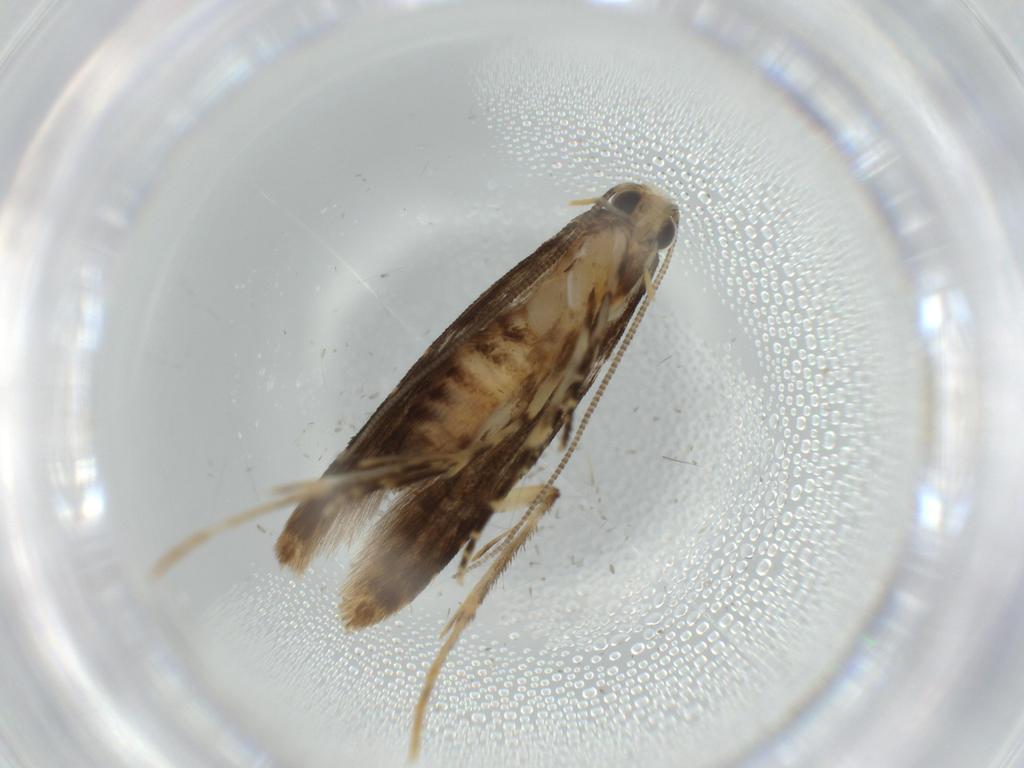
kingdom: Animalia
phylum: Arthropoda
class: Insecta
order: Lepidoptera
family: Tineidae
